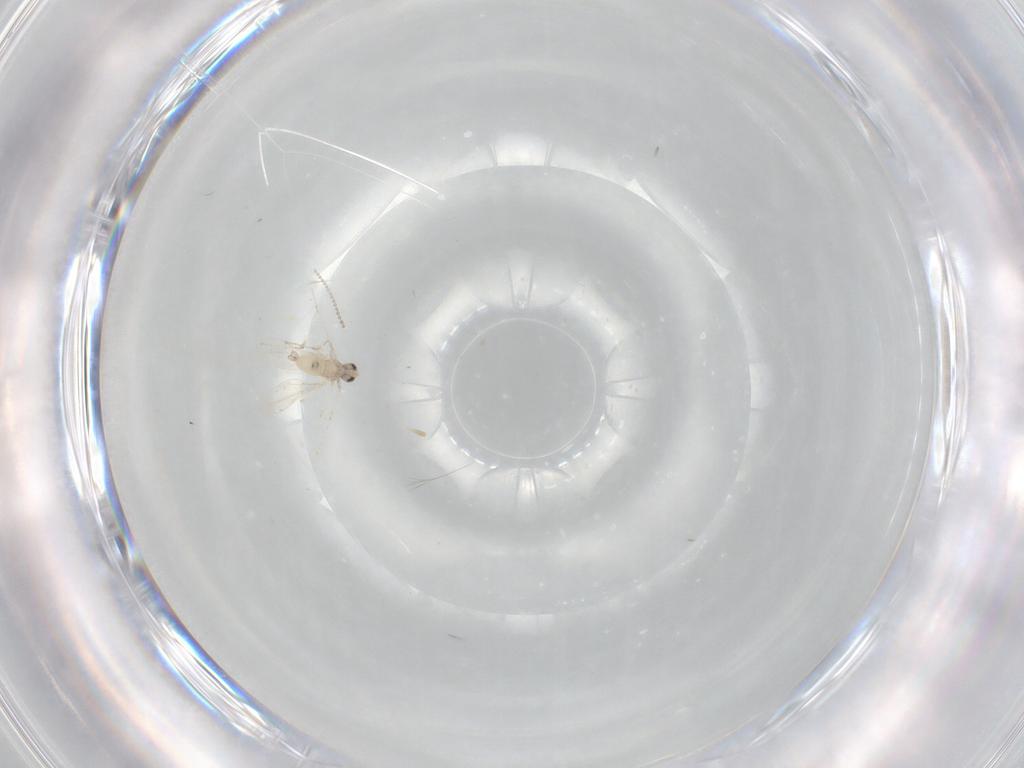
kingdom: Animalia
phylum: Arthropoda
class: Insecta
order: Diptera
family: Cecidomyiidae
